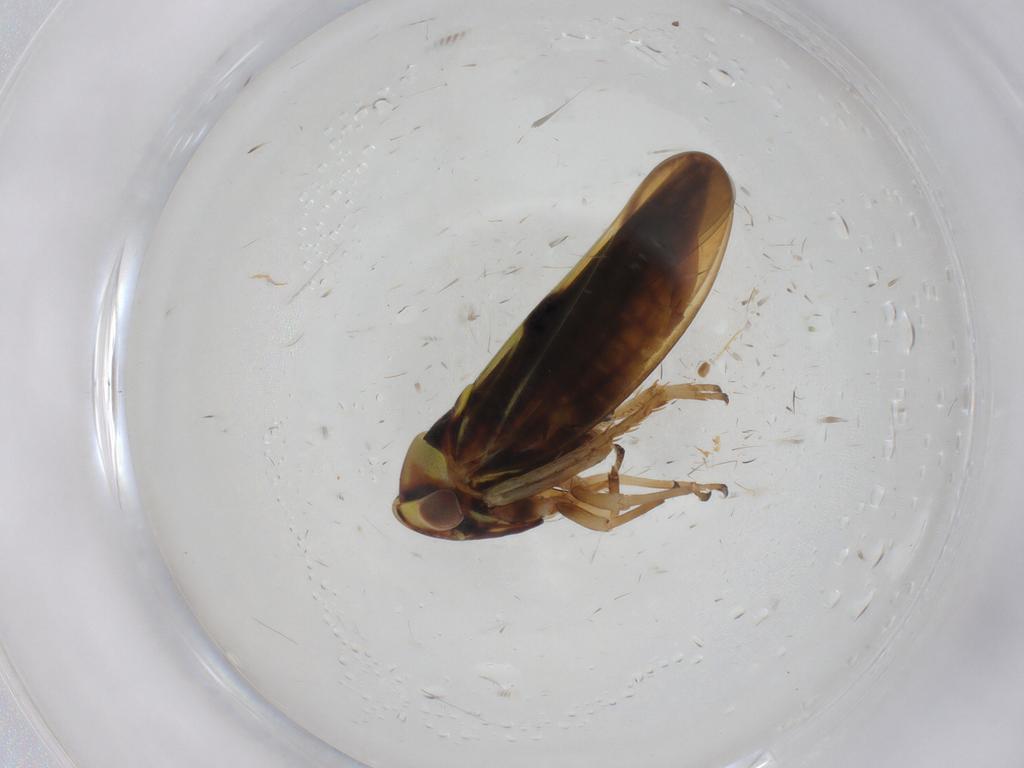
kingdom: Animalia
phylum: Arthropoda
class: Insecta
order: Hemiptera
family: Cicadellidae
